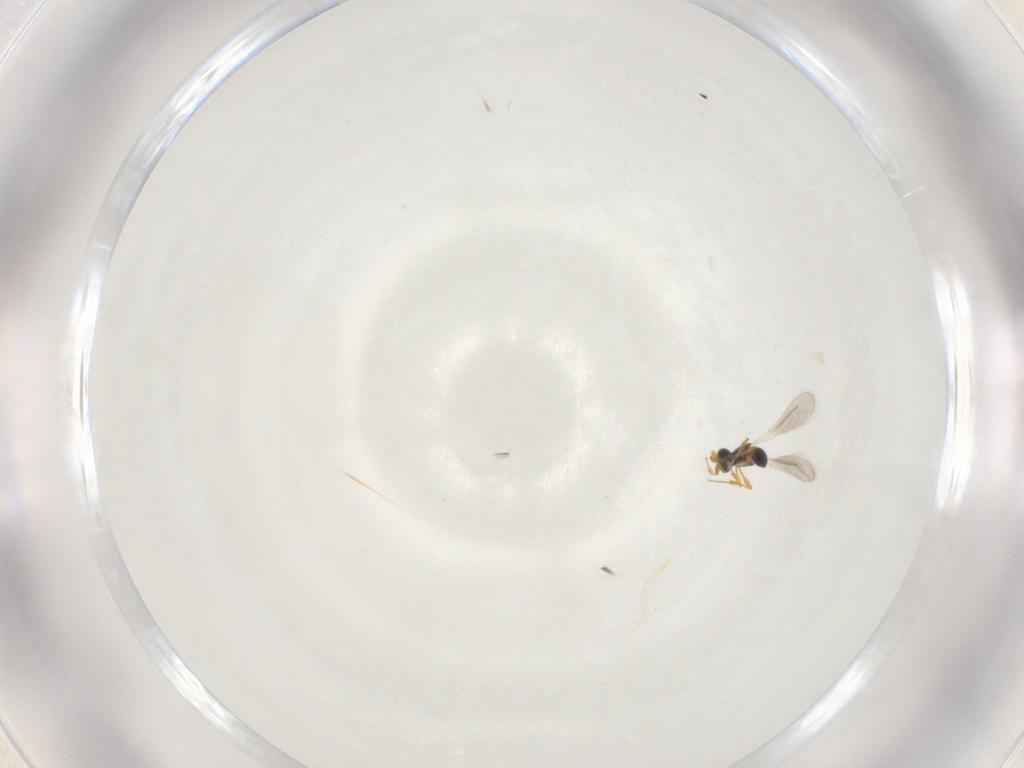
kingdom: Animalia
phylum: Arthropoda
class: Insecta
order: Hymenoptera
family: Platygastridae
